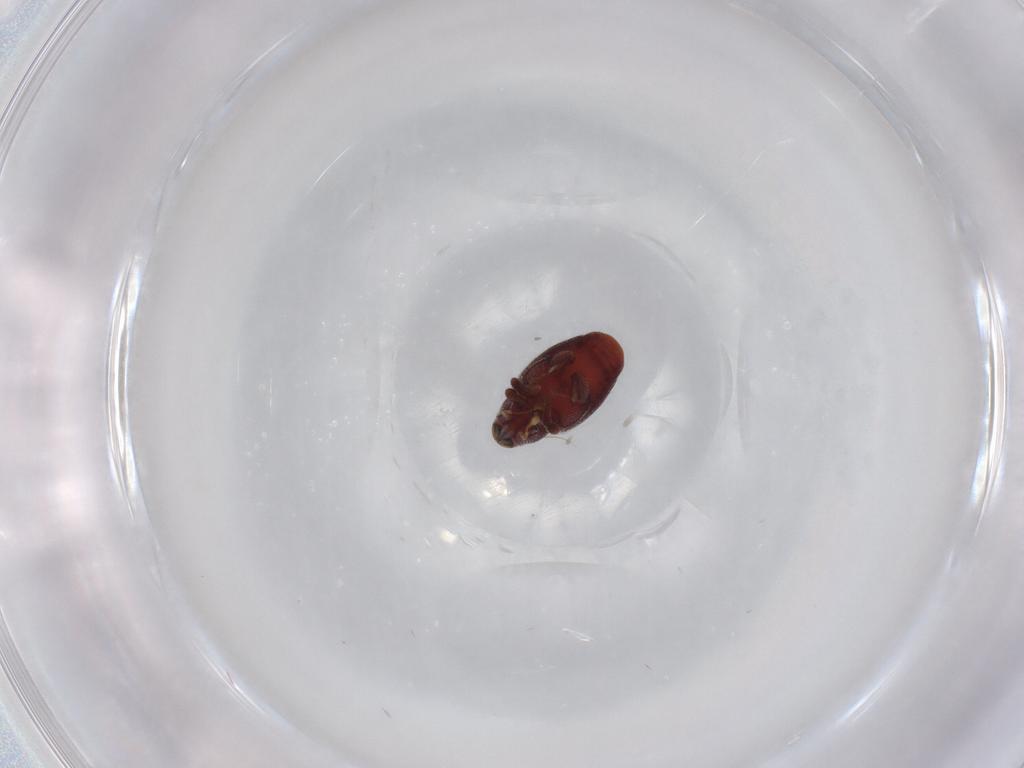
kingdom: Animalia
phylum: Arthropoda
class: Insecta
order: Coleoptera
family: Curculionidae
